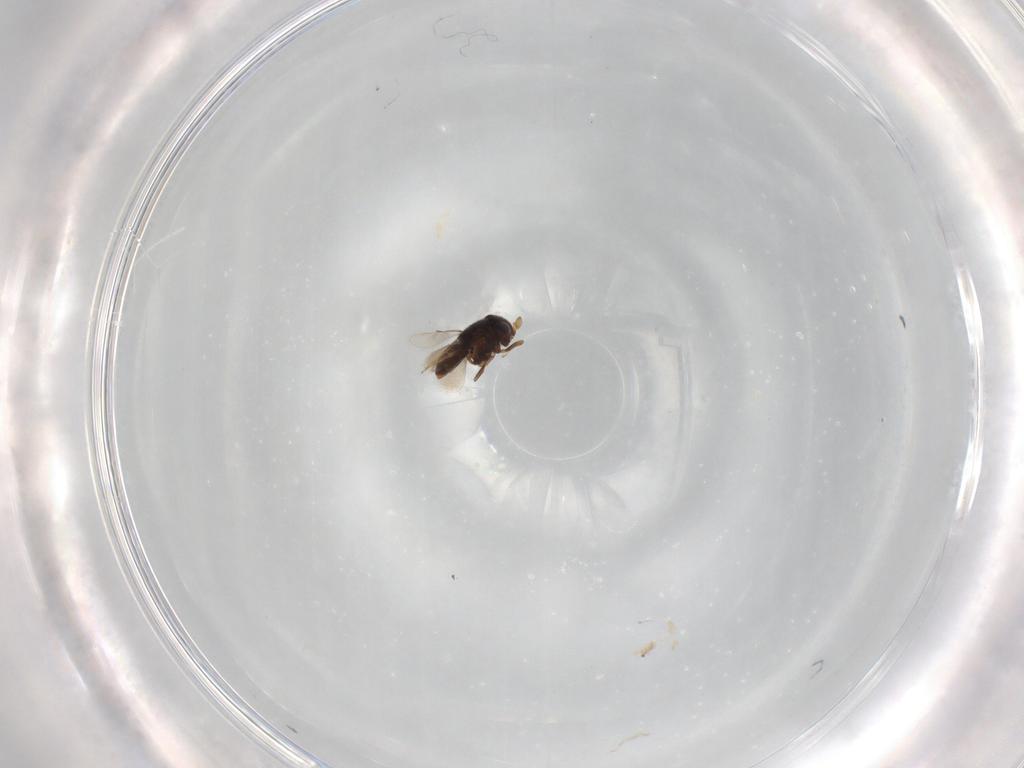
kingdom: Animalia
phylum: Arthropoda
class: Insecta
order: Hymenoptera
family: Scelionidae
